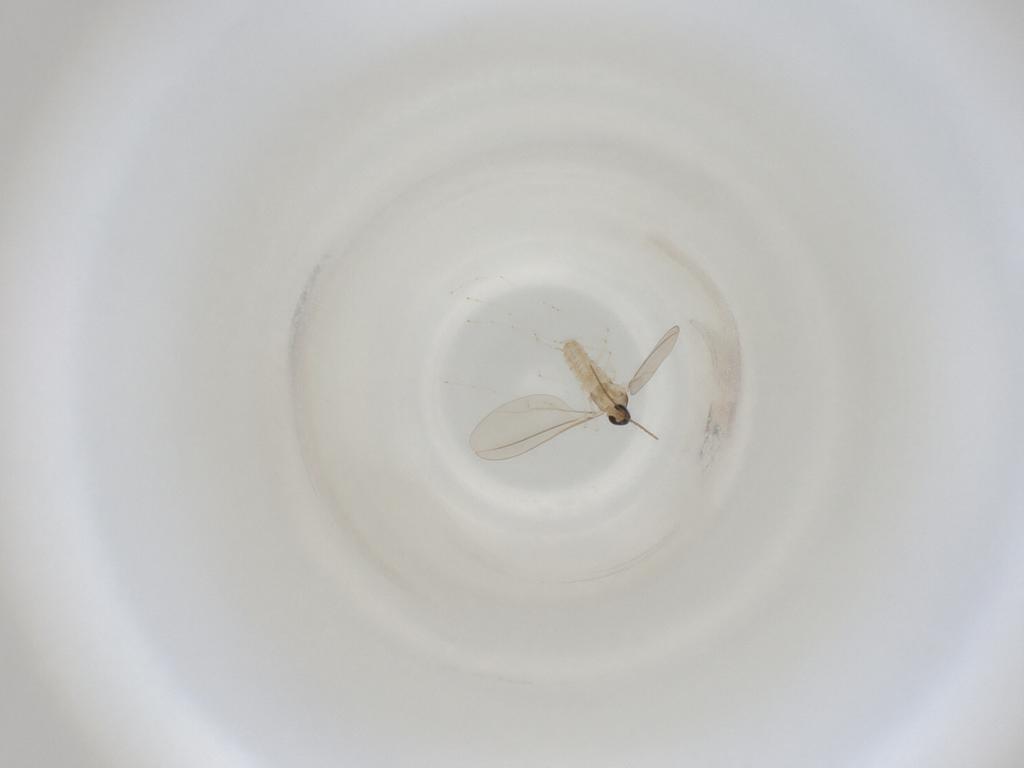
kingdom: Animalia
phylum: Arthropoda
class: Insecta
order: Diptera
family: Cecidomyiidae
